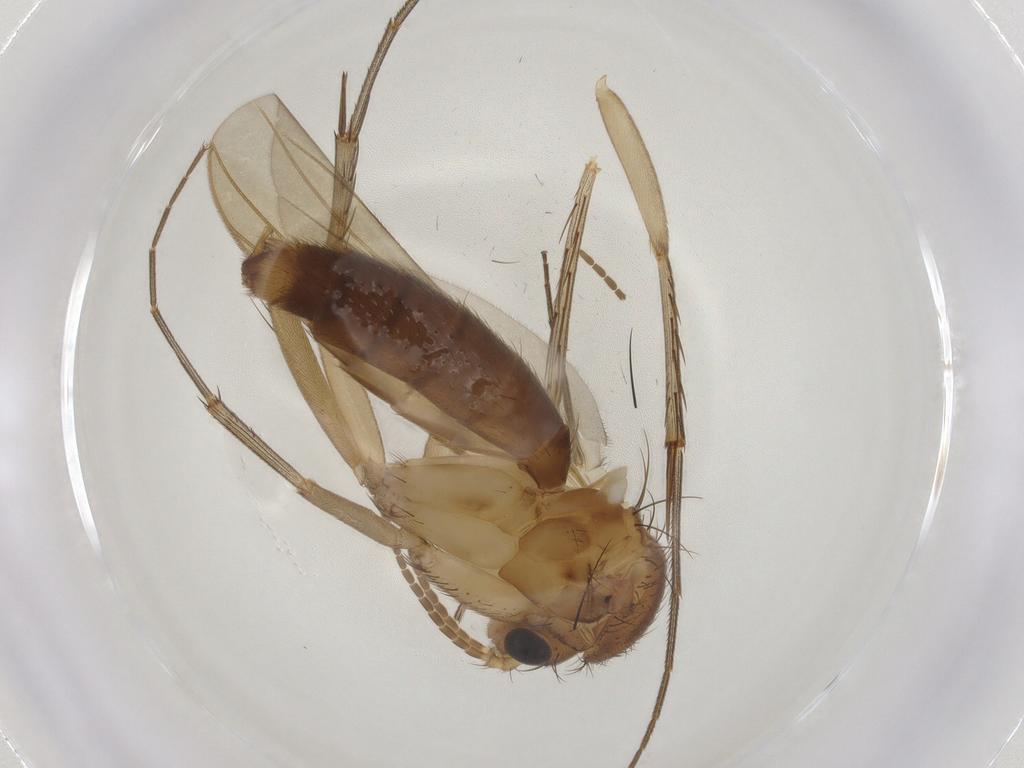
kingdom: Animalia
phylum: Arthropoda
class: Insecta
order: Diptera
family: Mycetophilidae
